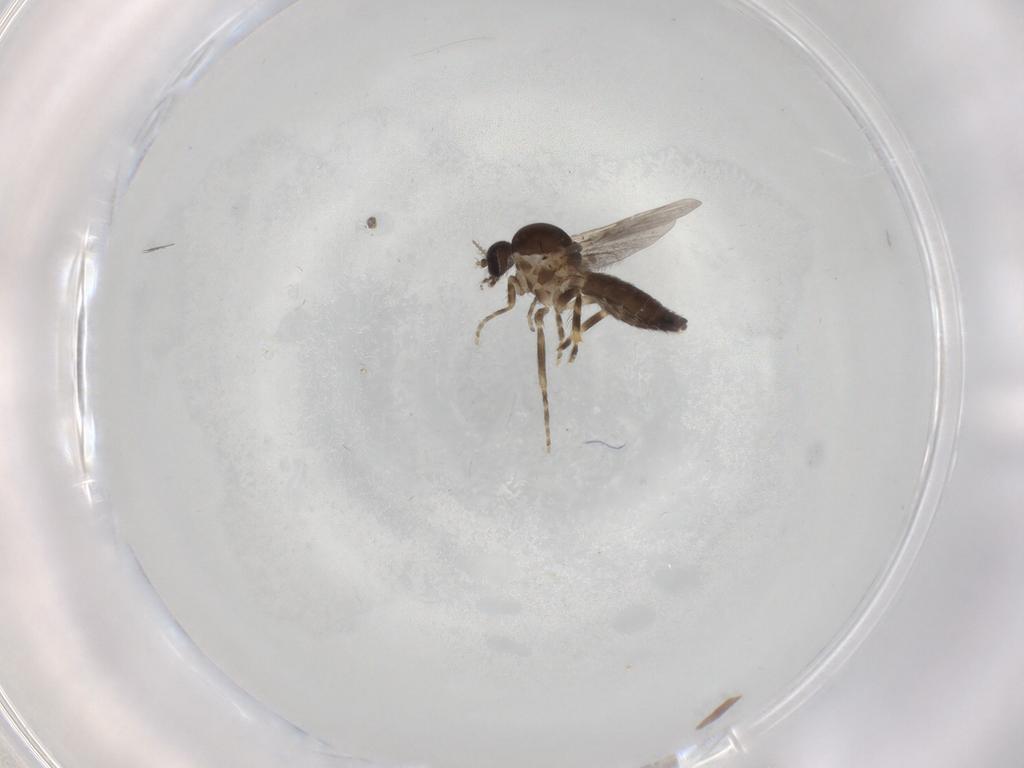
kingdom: Animalia
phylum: Arthropoda
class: Insecta
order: Diptera
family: Ceratopogonidae
